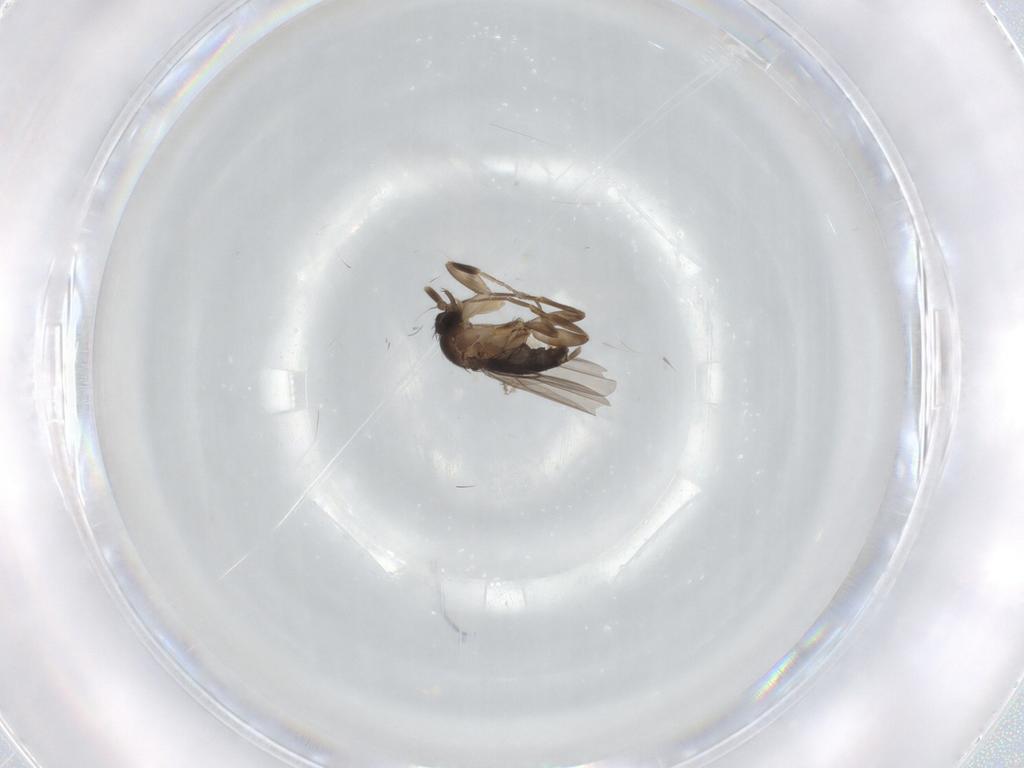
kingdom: Animalia
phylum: Arthropoda
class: Insecta
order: Diptera
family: Phoridae
